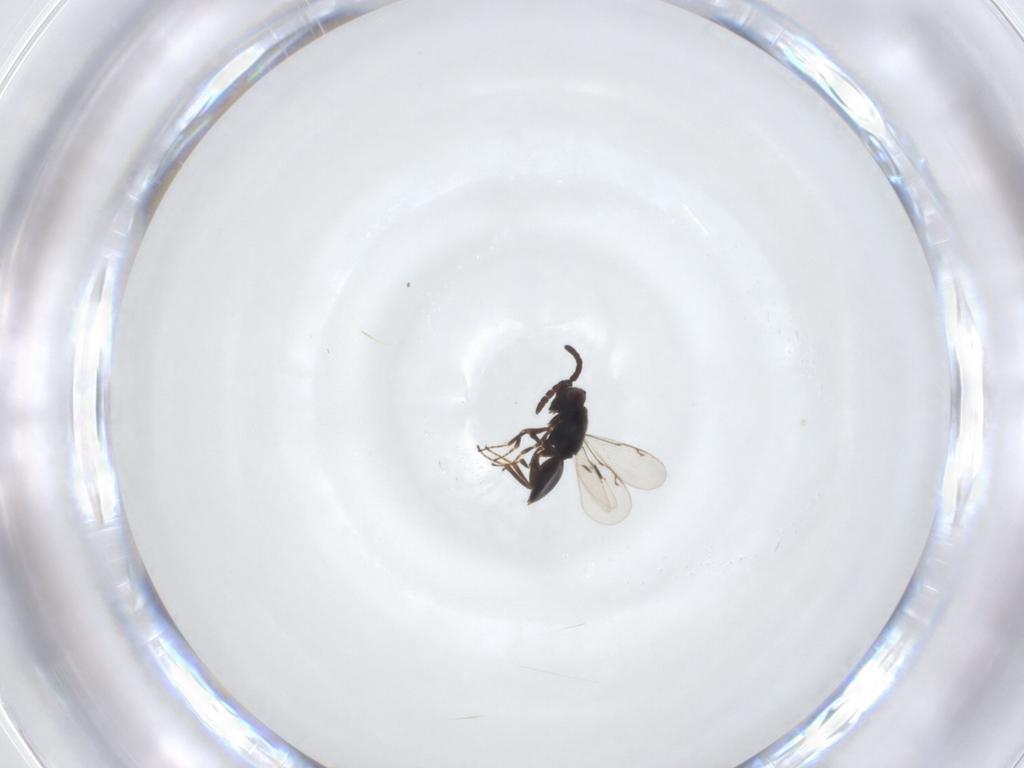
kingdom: Animalia
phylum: Arthropoda
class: Insecta
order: Hymenoptera
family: Eunotidae
